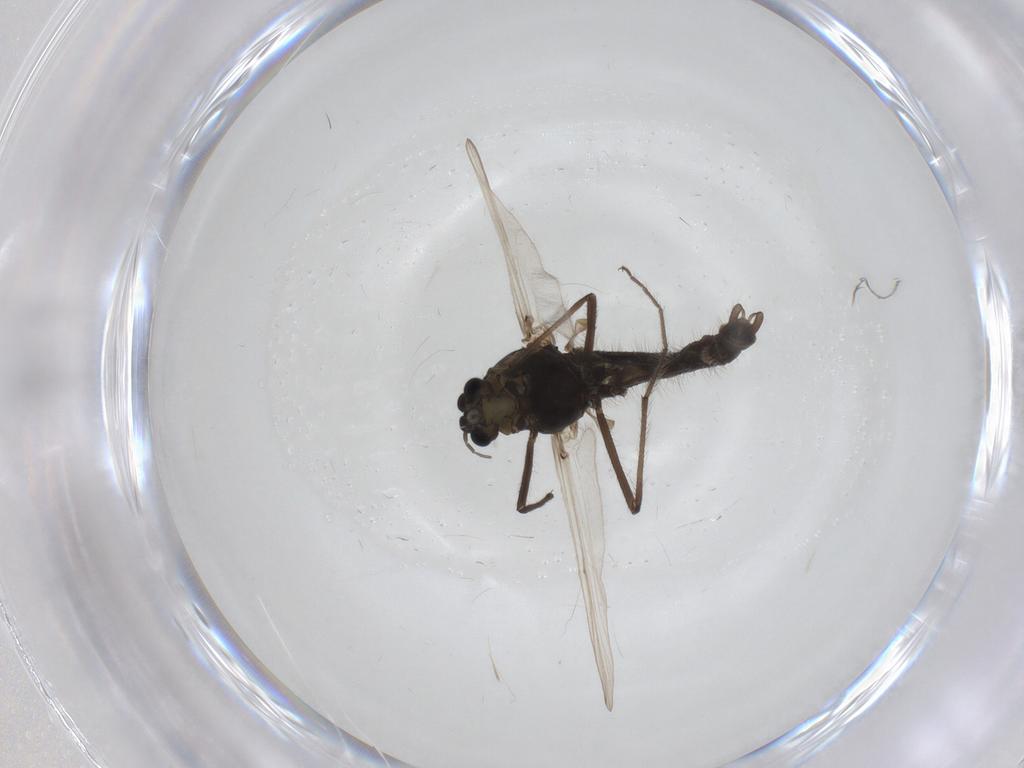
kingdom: Animalia
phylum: Arthropoda
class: Insecta
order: Diptera
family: Chironomidae
